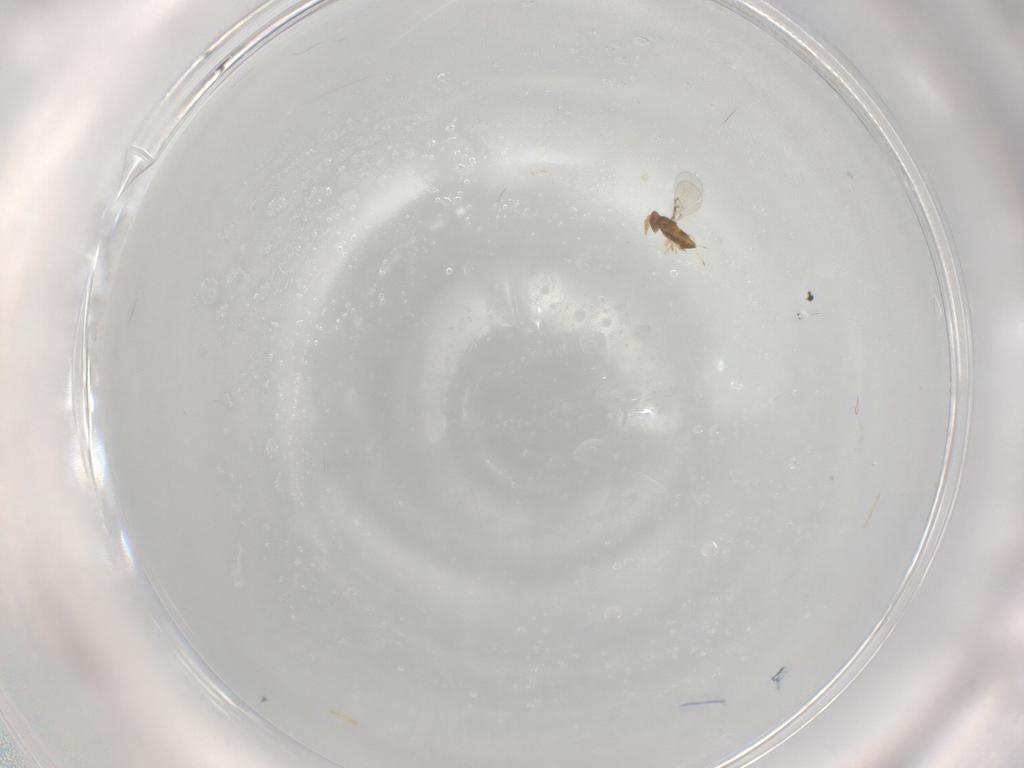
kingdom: Animalia
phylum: Arthropoda
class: Insecta
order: Hymenoptera
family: Trichogrammatidae
